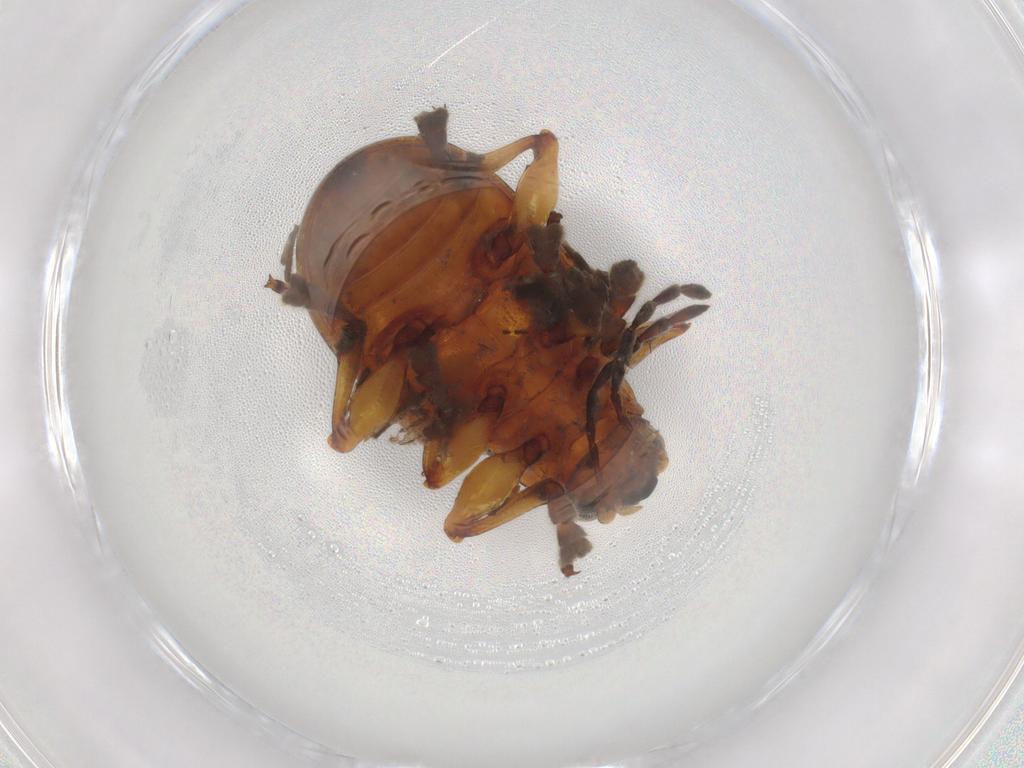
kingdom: Animalia
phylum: Arthropoda
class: Insecta
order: Coleoptera
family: Chrysomelidae
